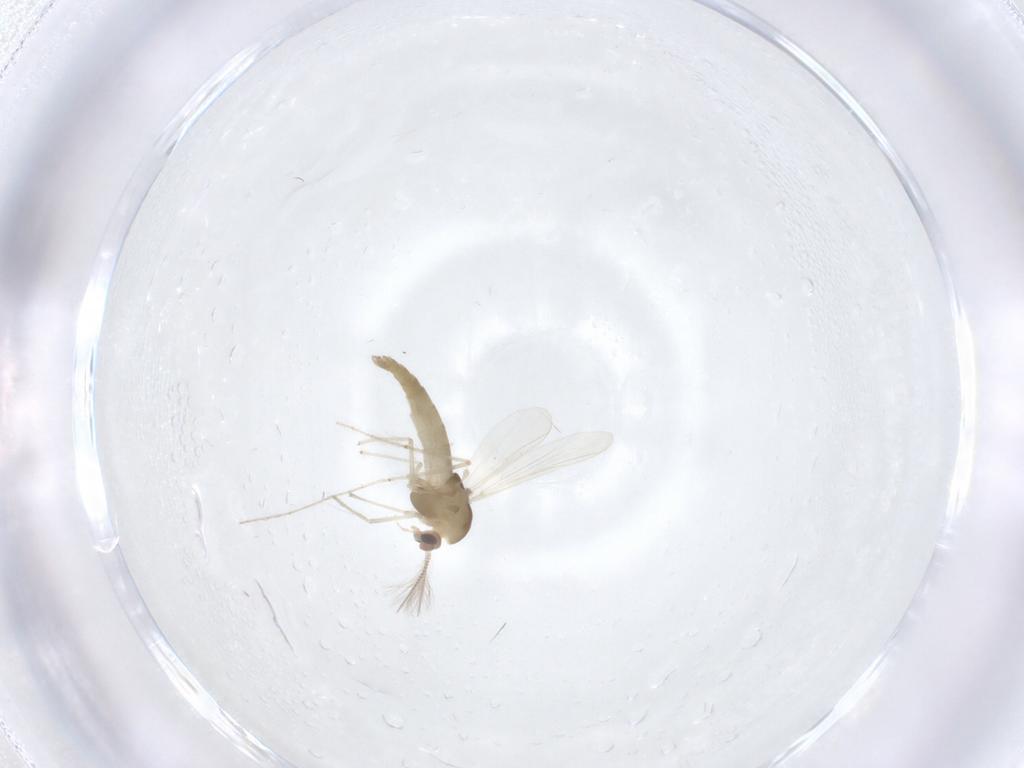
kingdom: Animalia
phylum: Arthropoda
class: Insecta
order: Diptera
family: Chironomidae
